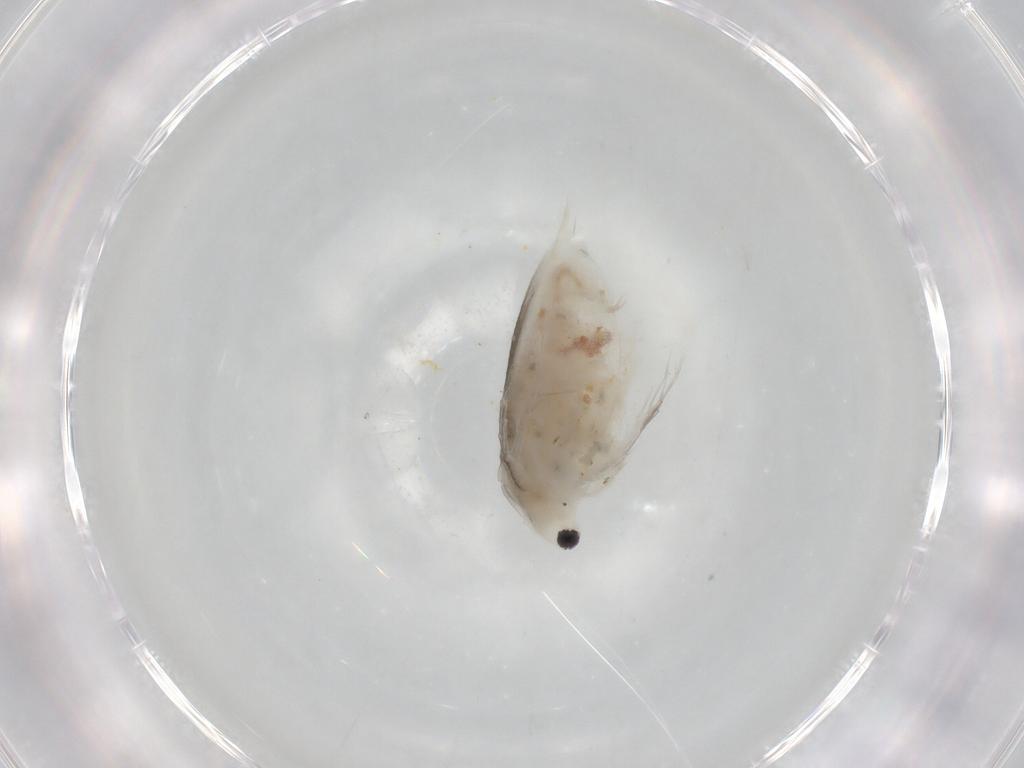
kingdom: Animalia
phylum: Arthropoda
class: Branchiopoda
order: Diplostraca
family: Daphniidae
